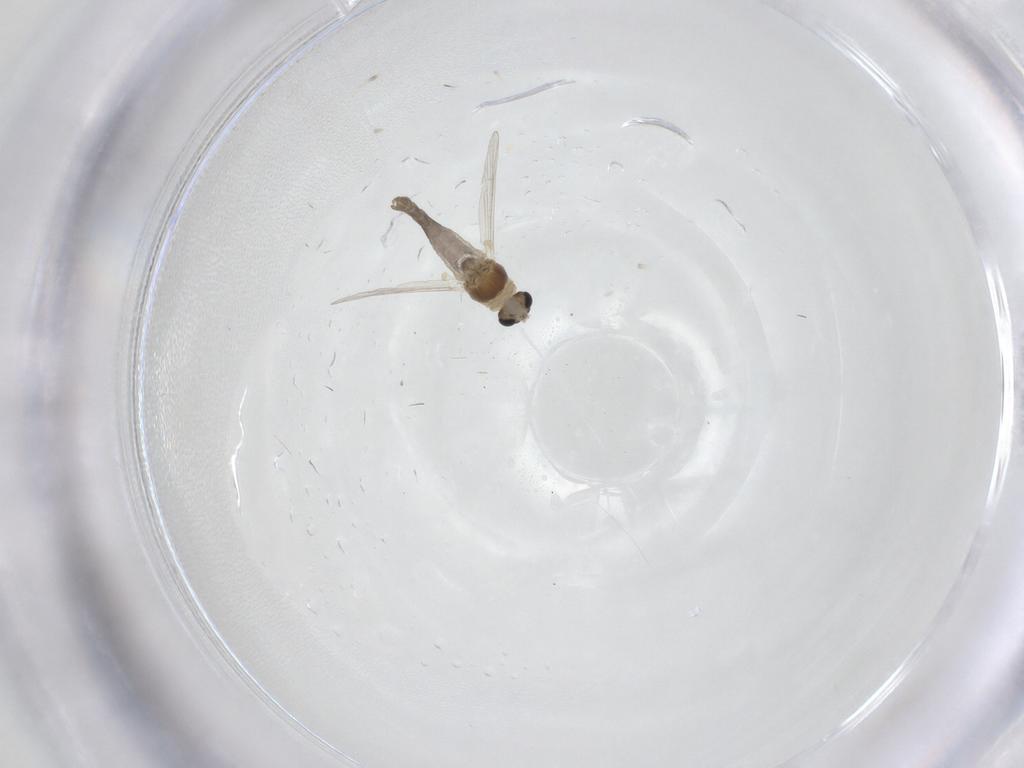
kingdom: Animalia
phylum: Arthropoda
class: Insecta
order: Diptera
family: Chironomidae
